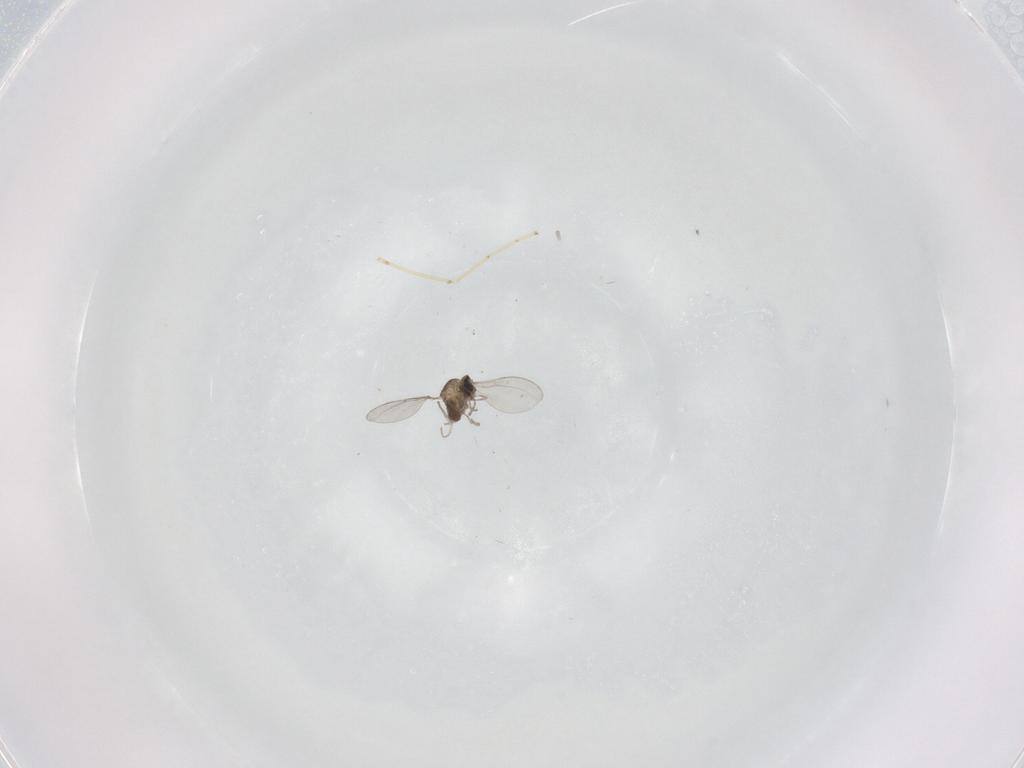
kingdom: Animalia
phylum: Arthropoda
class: Insecta
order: Diptera
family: Cecidomyiidae
